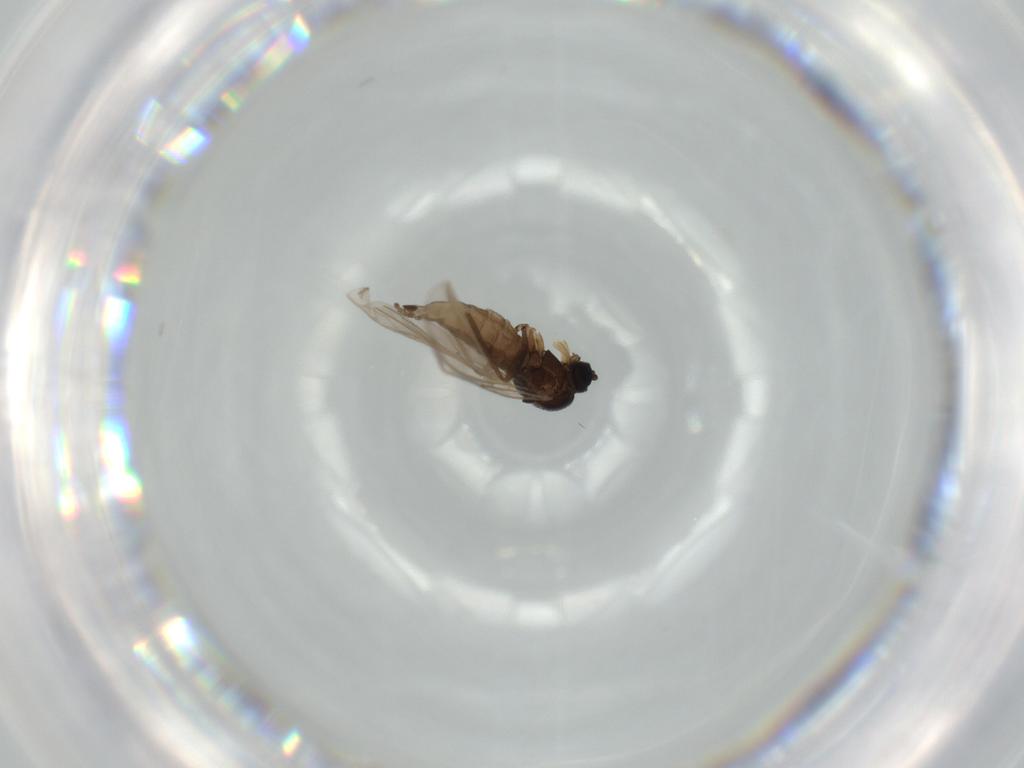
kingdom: Animalia
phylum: Arthropoda
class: Insecta
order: Diptera
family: Syrphidae
